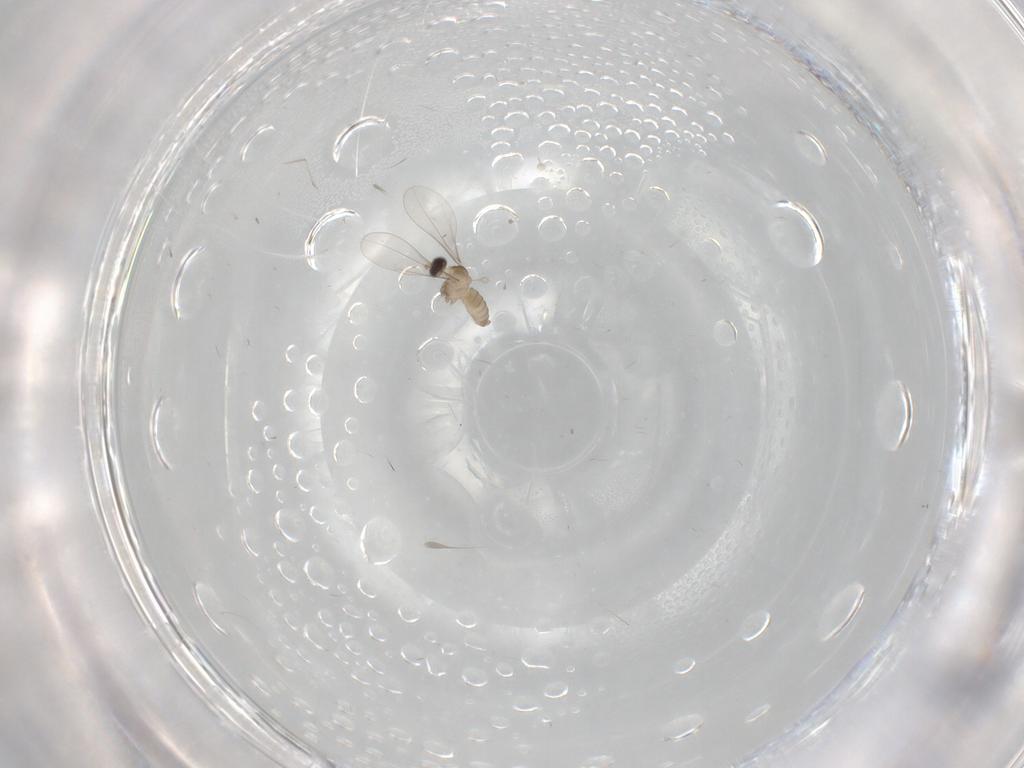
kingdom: Animalia
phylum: Arthropoda
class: Insecta
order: Diptera
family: Cecidomyiidae
